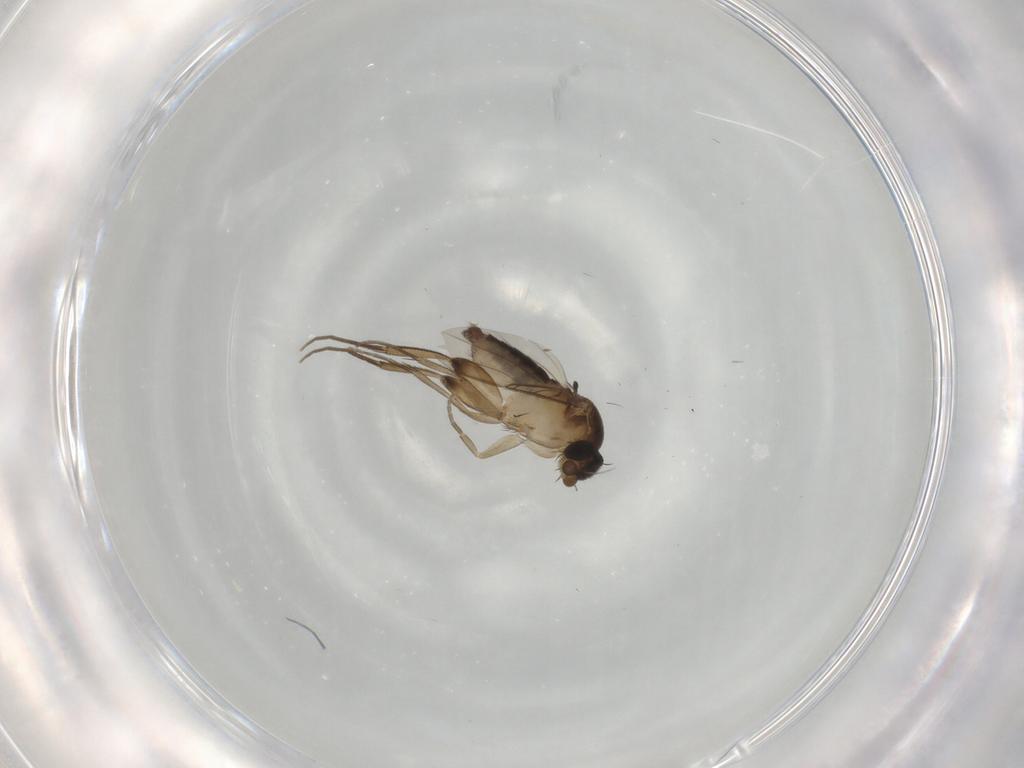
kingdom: Animalia
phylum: Arthropoda
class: Insecta
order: Diptera
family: Phoridae
